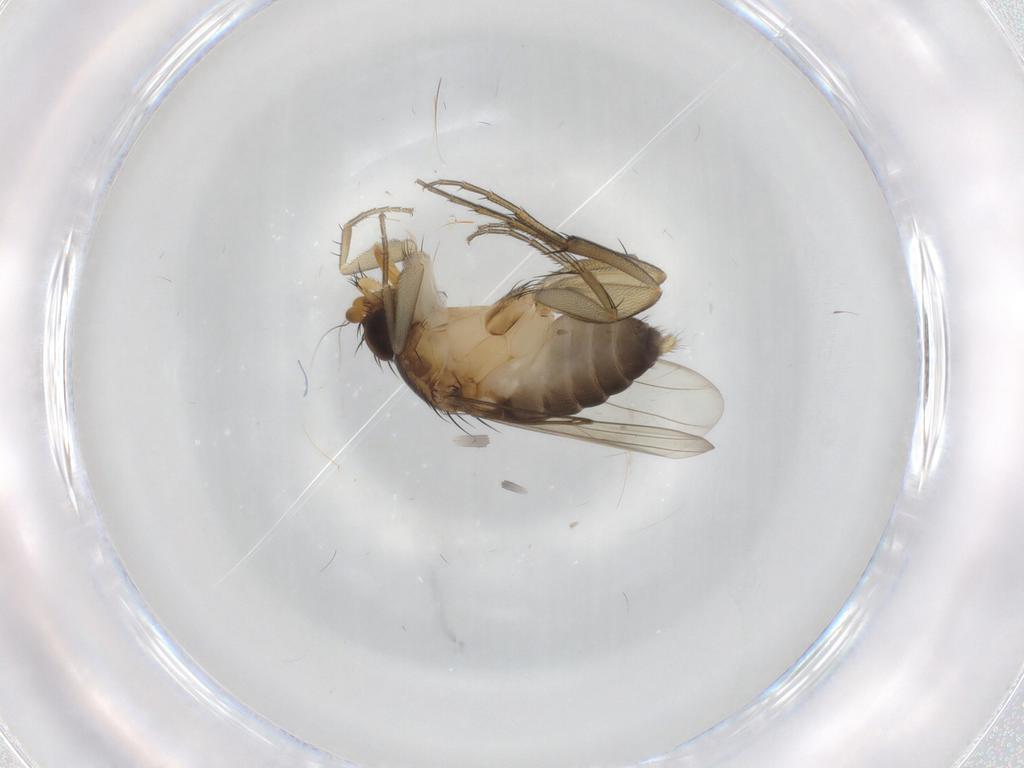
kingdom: Animalia
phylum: Arthropoda
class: Insecta
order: Diptera
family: Phoridae
